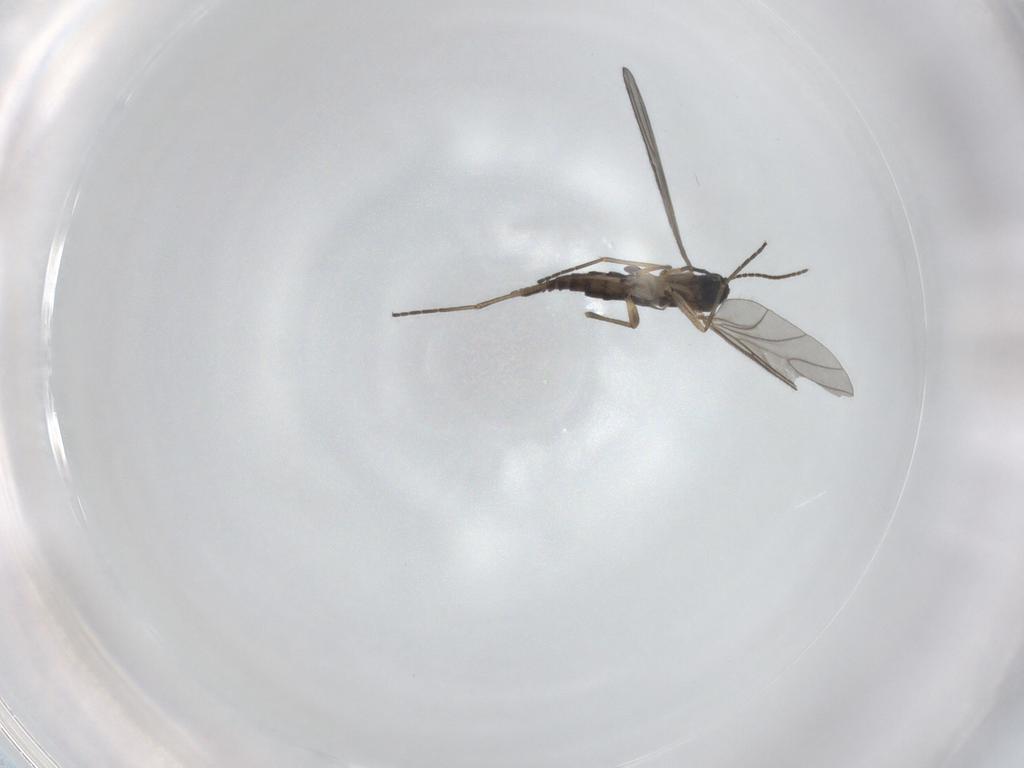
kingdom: Animalia
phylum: Arthropoda
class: Insecta
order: Diptera
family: Sciaridae
